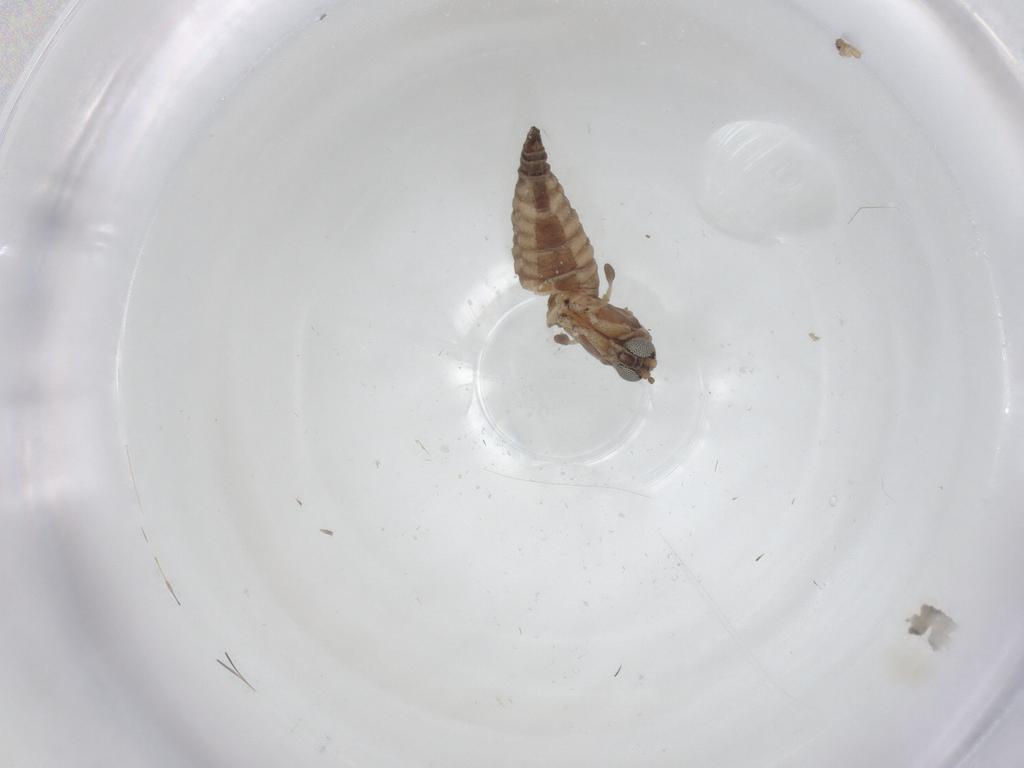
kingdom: Animalia
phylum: Arthropoda
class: Insecta
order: Diptera
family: Sciaridae
